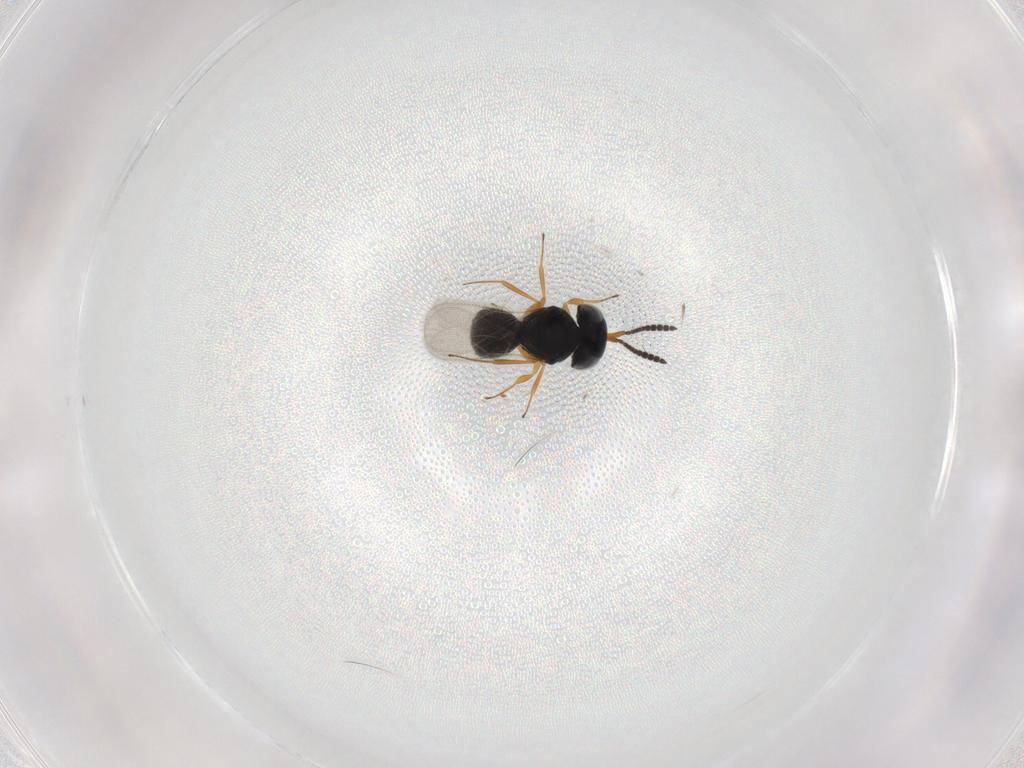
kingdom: Animalia
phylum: Arthropoda
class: Insecta
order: Hymenoptera
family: Scelionidae
